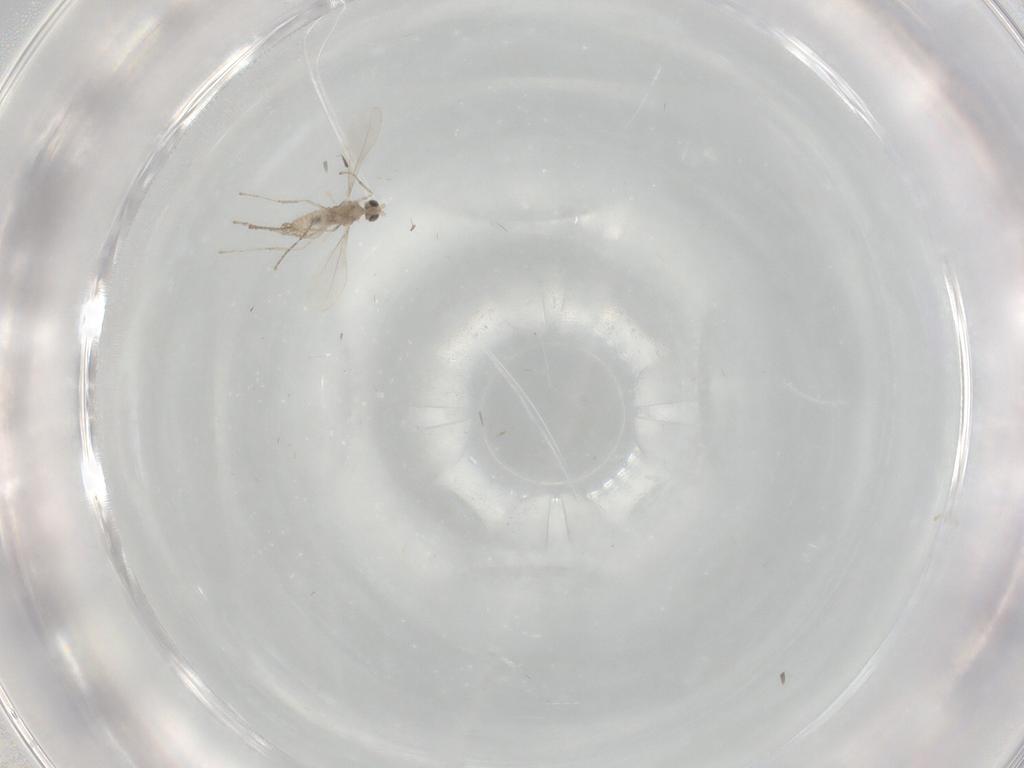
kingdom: Animalia
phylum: Arthropoda
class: Insecta
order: Diptera
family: Cecidomyiidae
